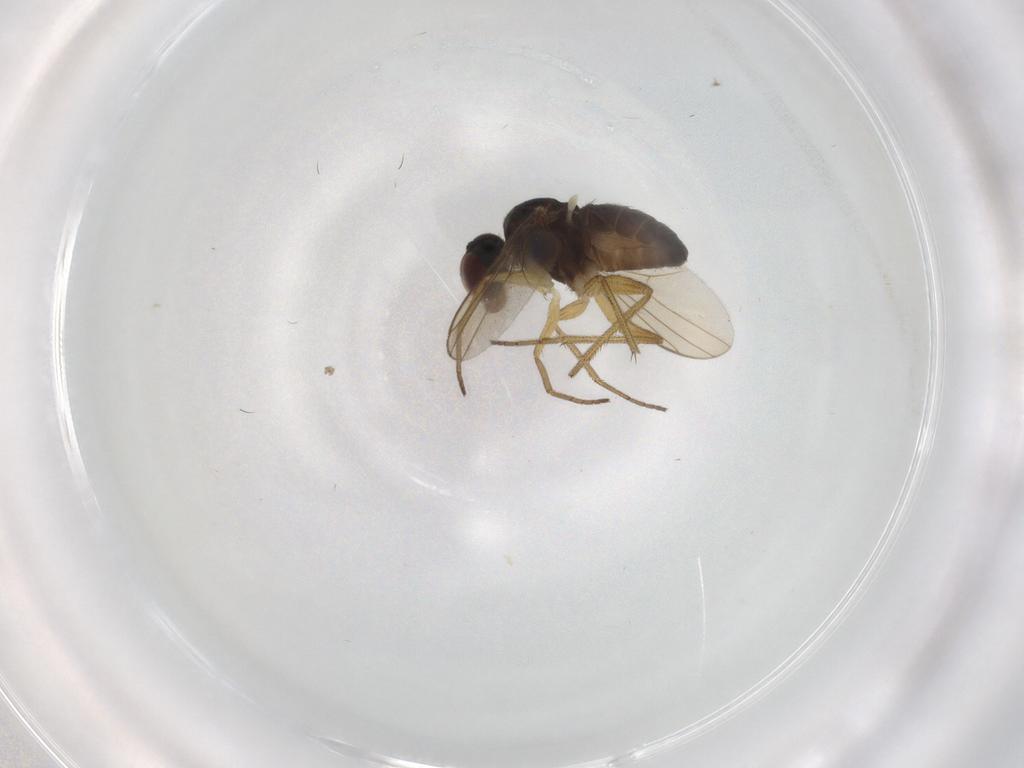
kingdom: Animalia
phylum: Arthropoda
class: Insecta
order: Diptera
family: Dolichopodidae
